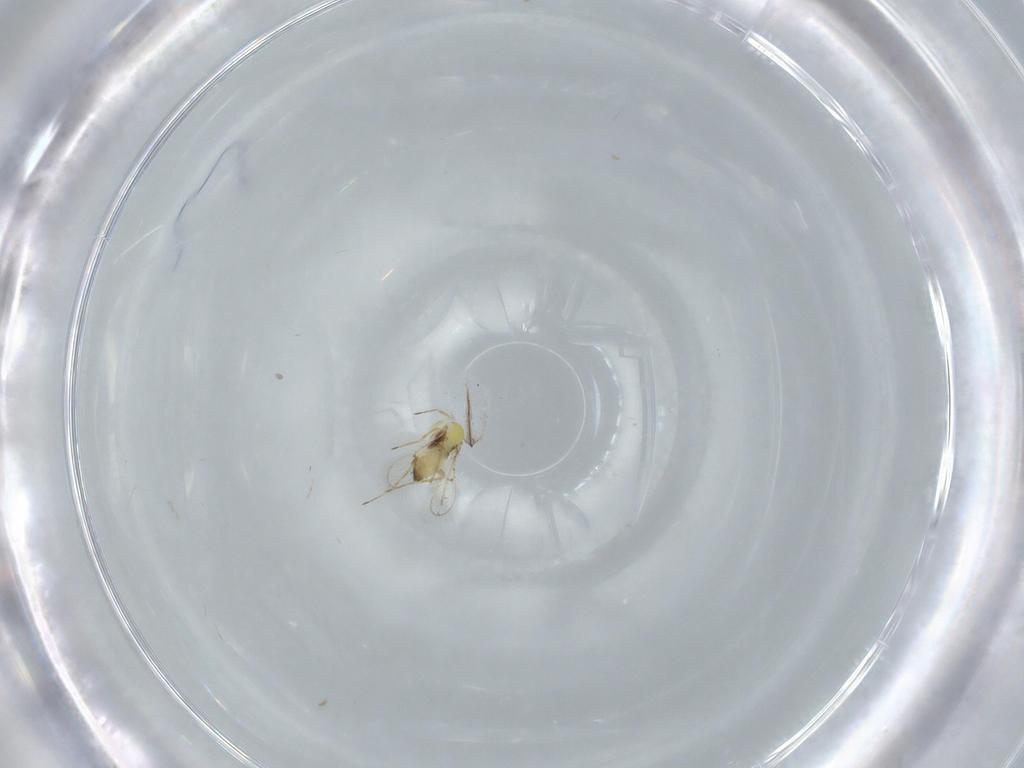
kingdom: Animalia
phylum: Arthropoda
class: Insecta
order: Hymenoptera
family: Trichogrammatidae
